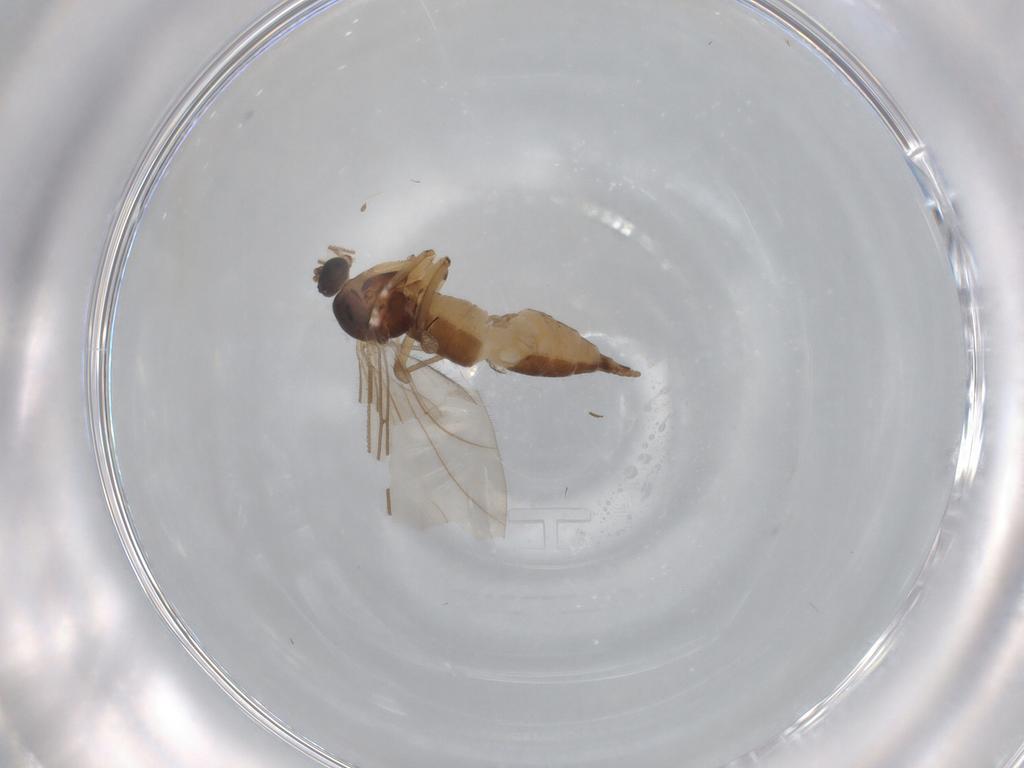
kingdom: Animalia
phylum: Arthropoda
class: Insecta
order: Diptera
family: Sciaridae
